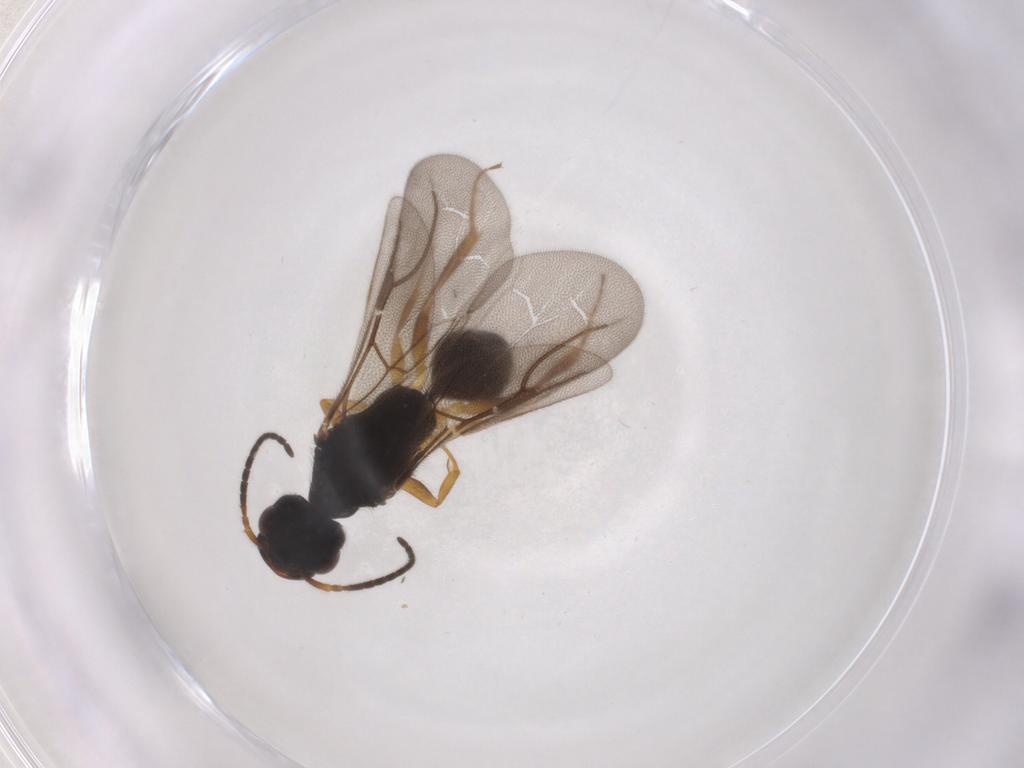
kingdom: Animalia
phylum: Arthropoda
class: Insecta
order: Hymenoptera
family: Bethylidae
